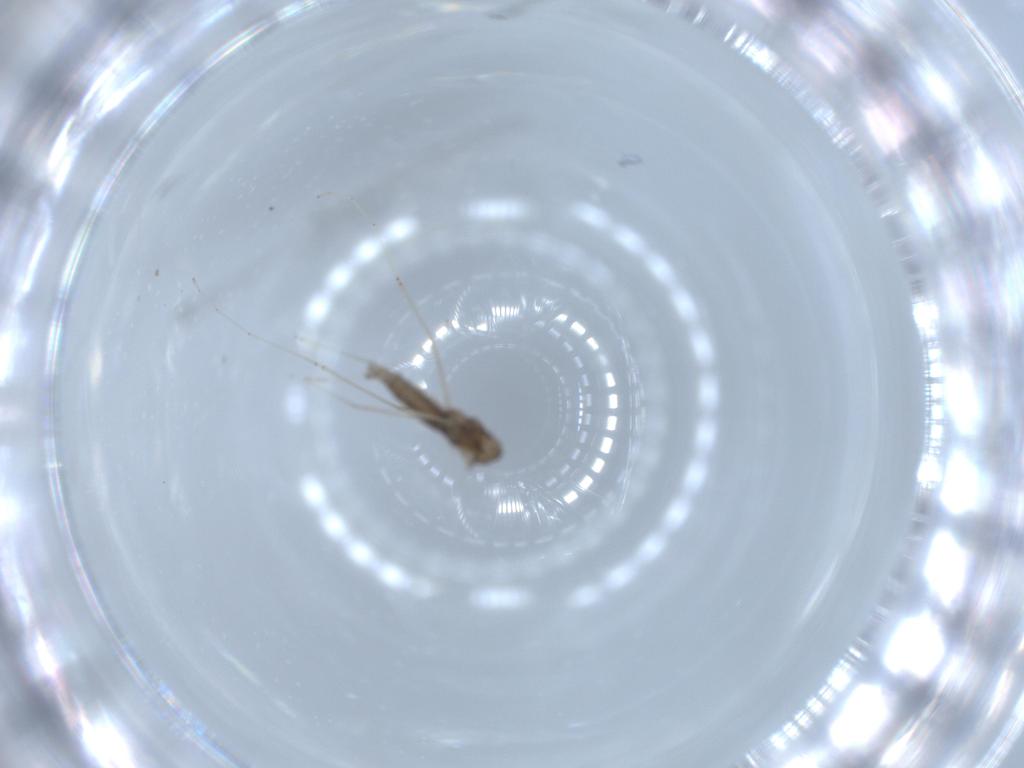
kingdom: Animalia
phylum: Arthropoda
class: Insecta
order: Diptera
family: Cecidomyiidae
